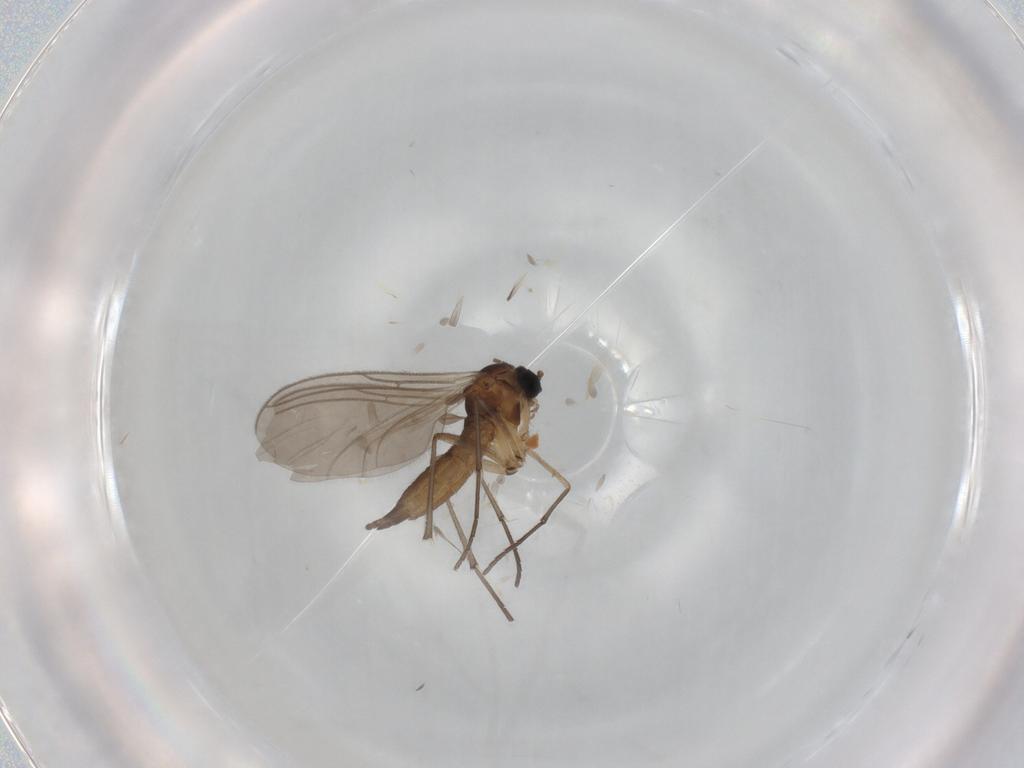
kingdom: Animalia
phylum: Arthropoda
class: Insecta
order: Diptera
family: Sciaridae
